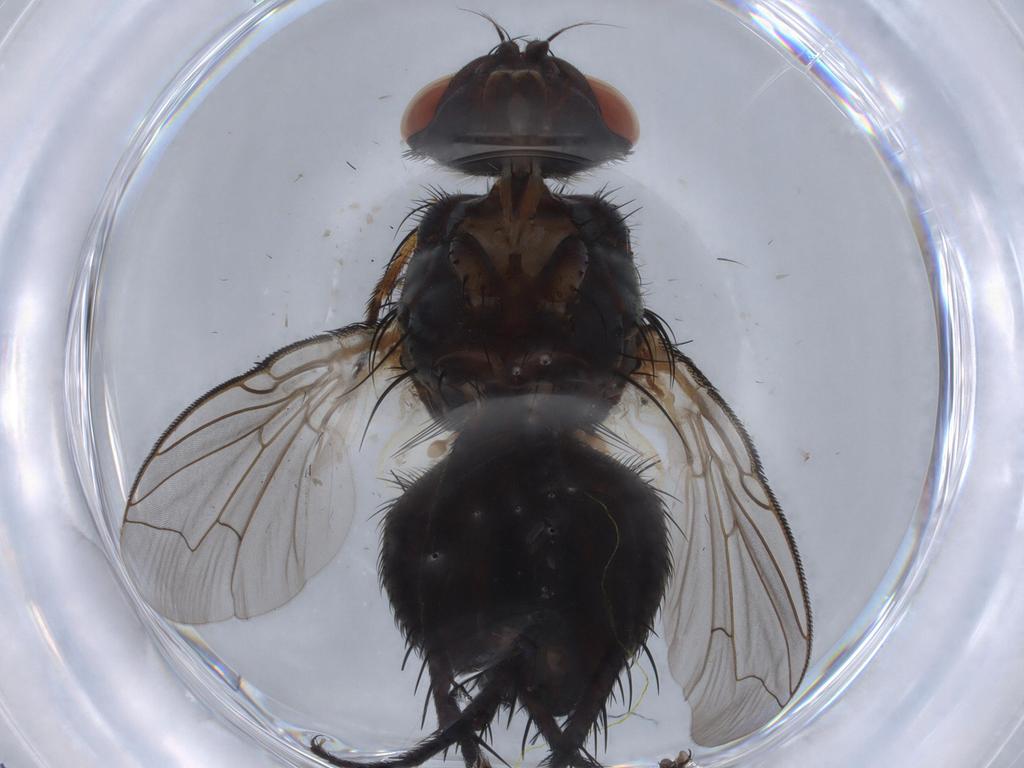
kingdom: Animalia
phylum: Arthropoda
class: Insecta
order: Diptera
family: Sarcophagidae
